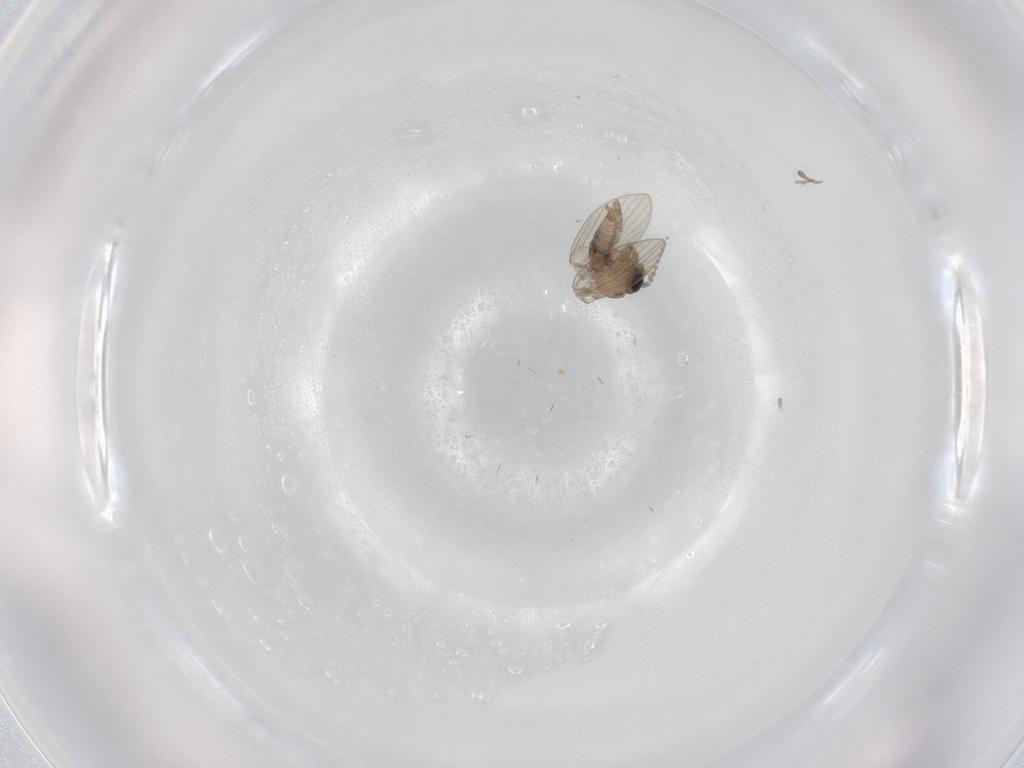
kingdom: Animalia
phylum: Arthropoda
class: Insecta
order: Diptera
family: Psychodidae
